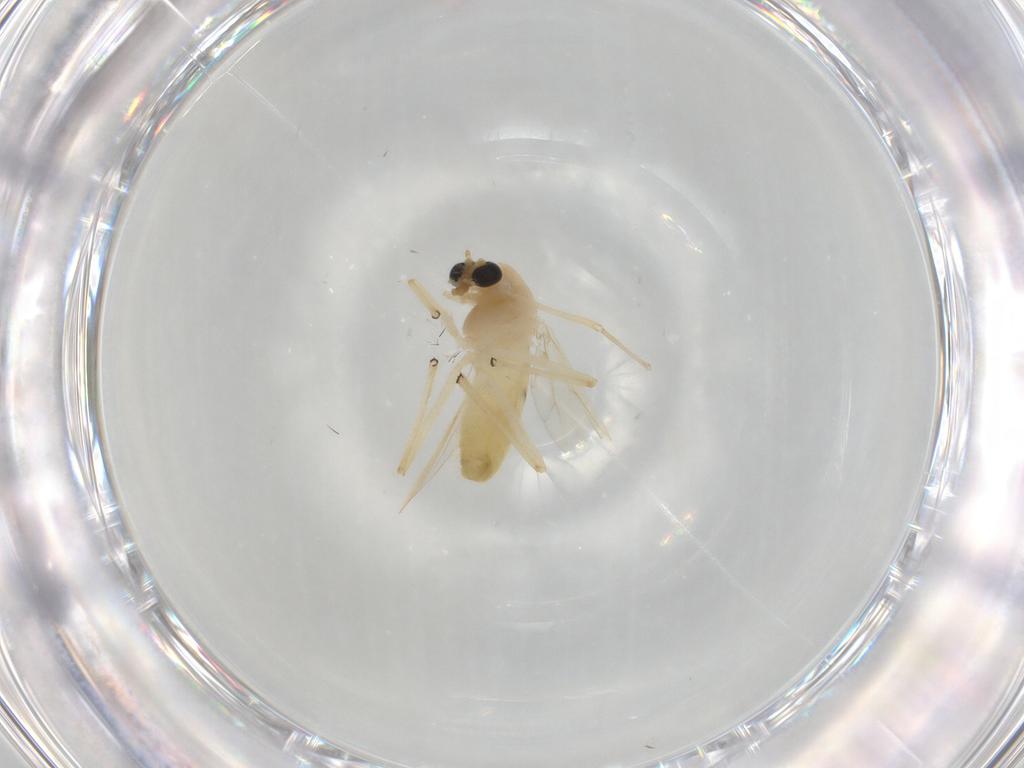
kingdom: Animalia
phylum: Arthropoda
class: Insecta
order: Diptera
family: Chironomidae
